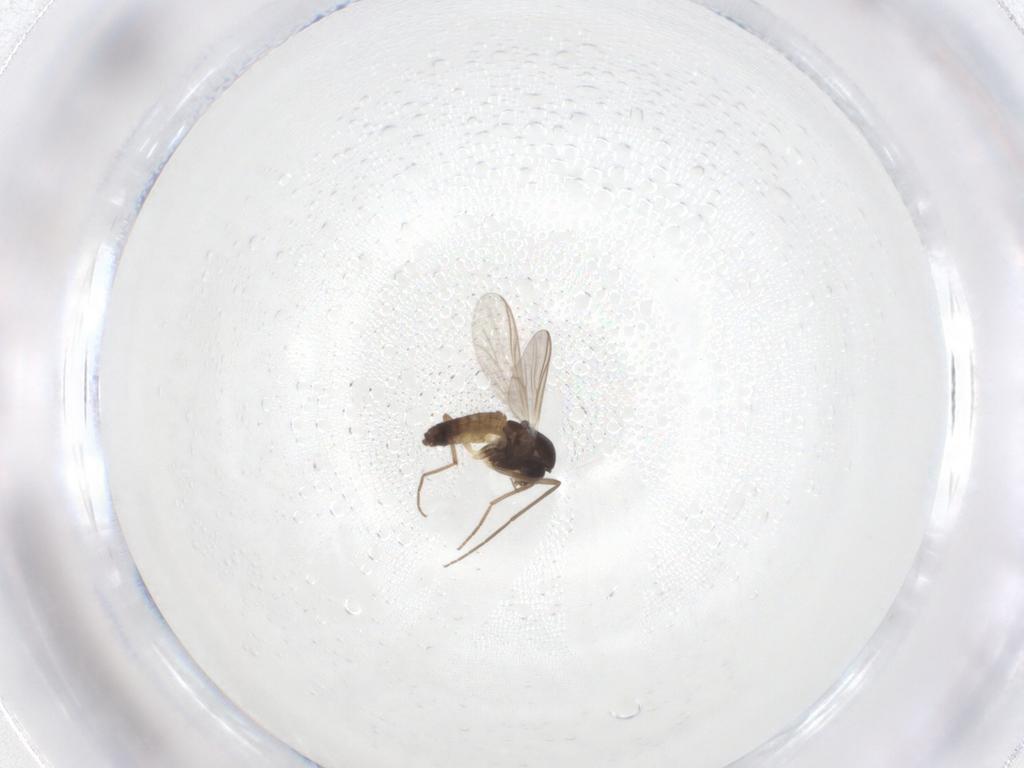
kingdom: Animalia
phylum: Arthropoda
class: Insecta
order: Diptera
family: Chironomidae
